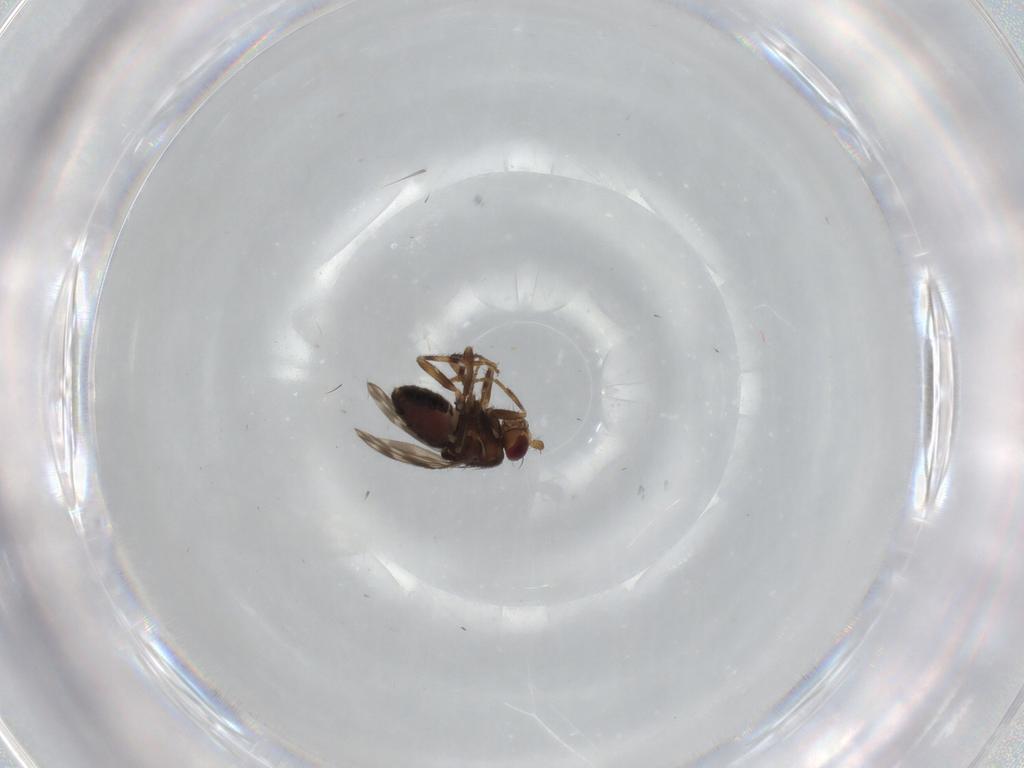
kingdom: Animalia
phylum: Arthropoda
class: Insecta
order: Diptera
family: Sphaeroceridae
